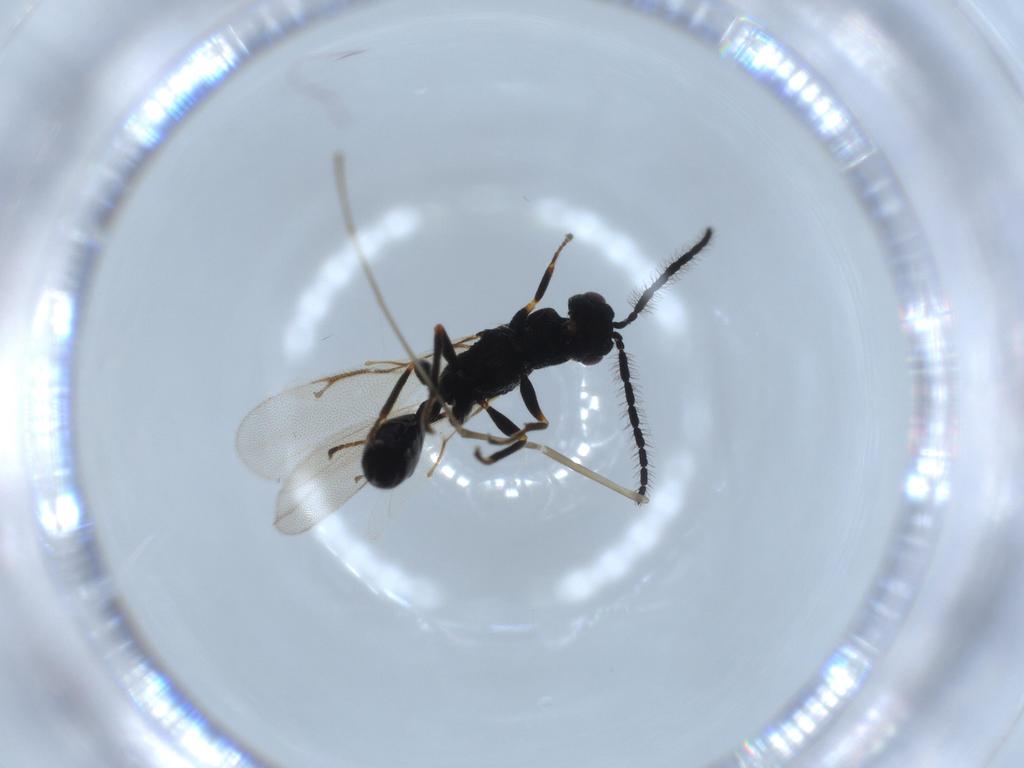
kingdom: Animalia
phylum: Arthropoda
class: Insecta
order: Hymenoptera
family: Eurytomidae
